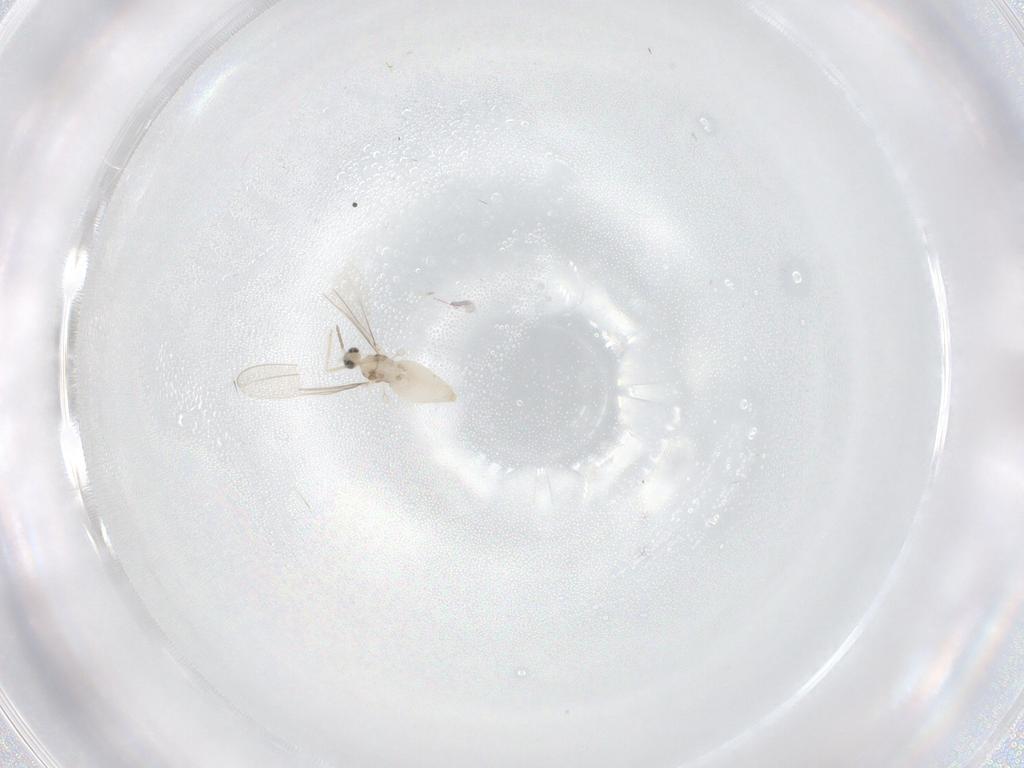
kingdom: Animalia
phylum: Arthropoda
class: Insecta
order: Diptera
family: Cecidomyiidae
